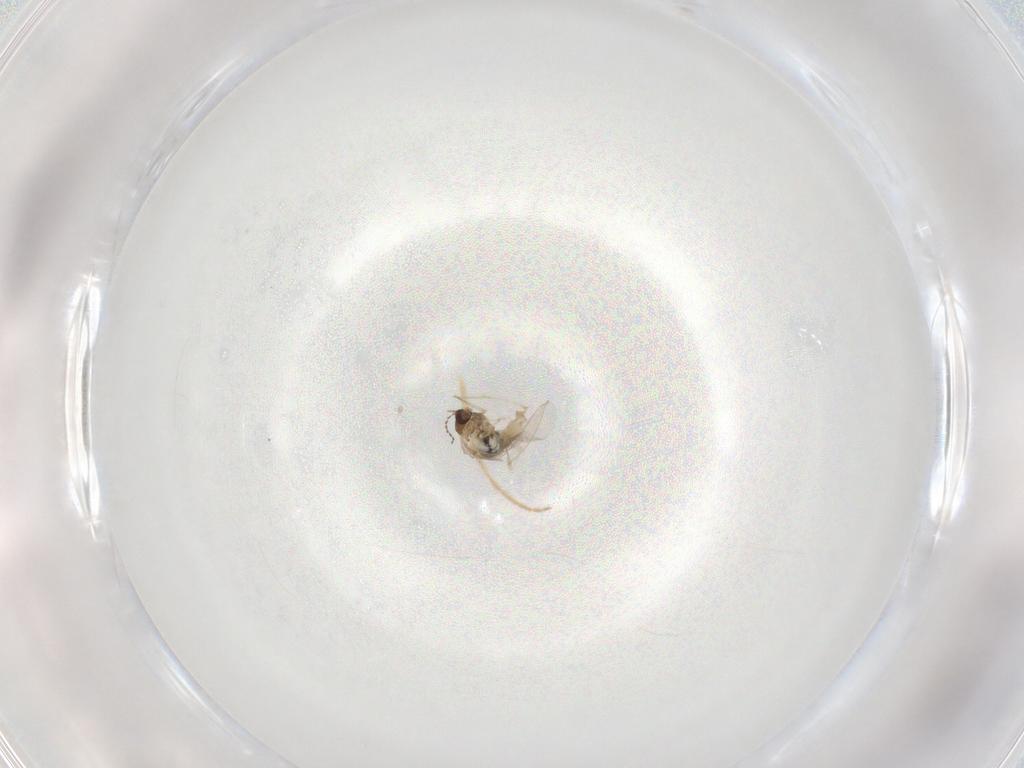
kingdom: Animalia
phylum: Arthropoda
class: Insecta
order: Diptera
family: Cecidomyiidae
